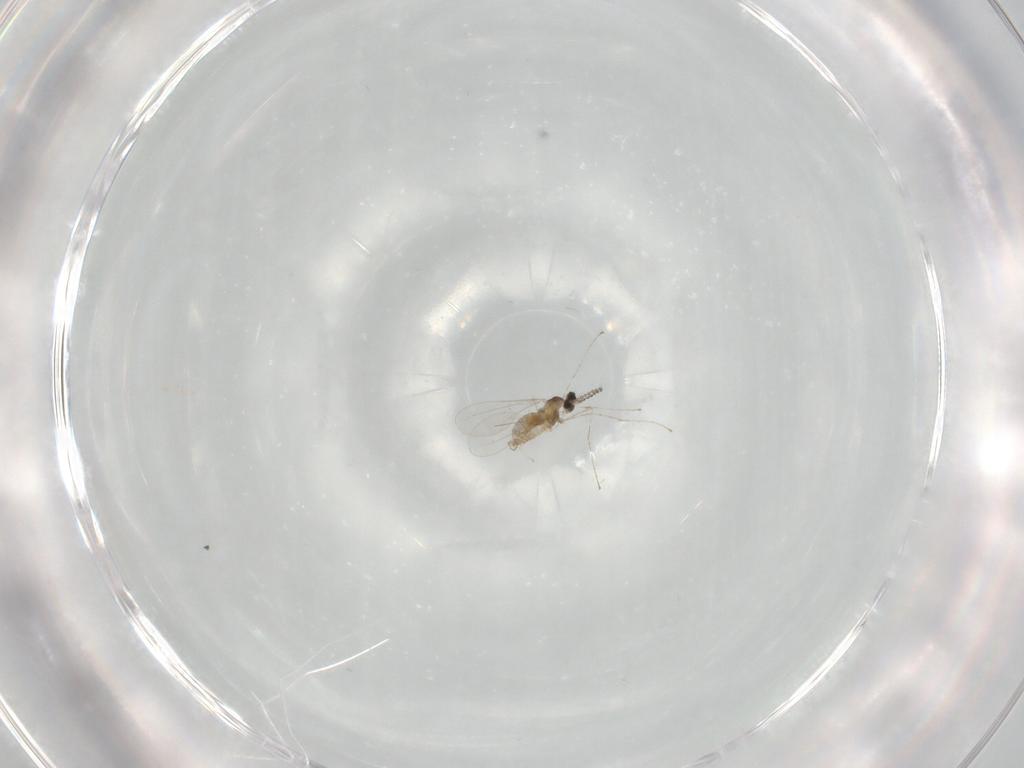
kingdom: Animalia
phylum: Arthropoda
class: Insecta
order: Diptera
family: Cecidomyiidae
